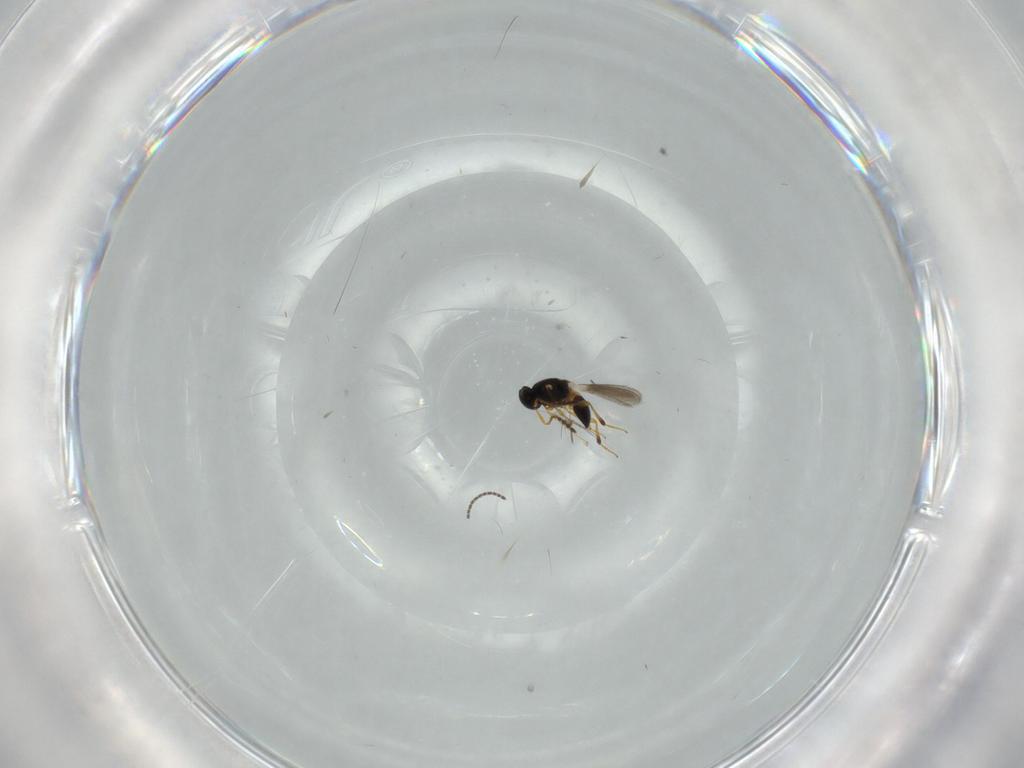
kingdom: Animalia
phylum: Arthropoda
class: Insecta
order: Hymenoptera
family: Platygastridae
